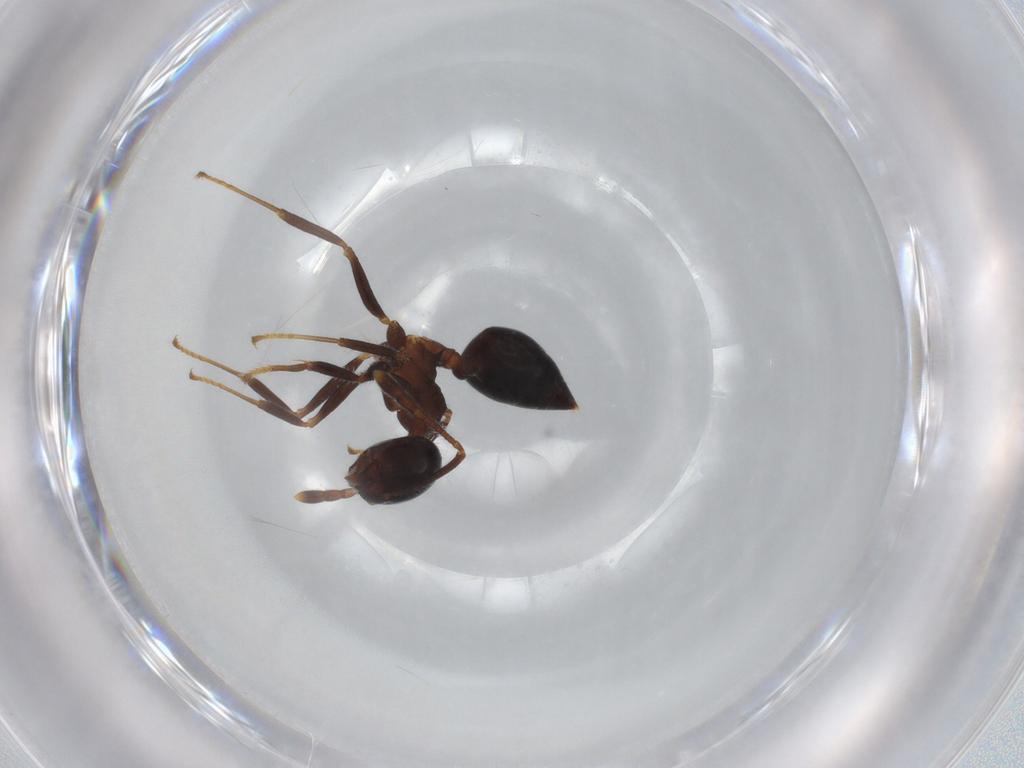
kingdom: Animalia
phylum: Arthropoda
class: Insecta
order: Hymenoptera
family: Formicidae
